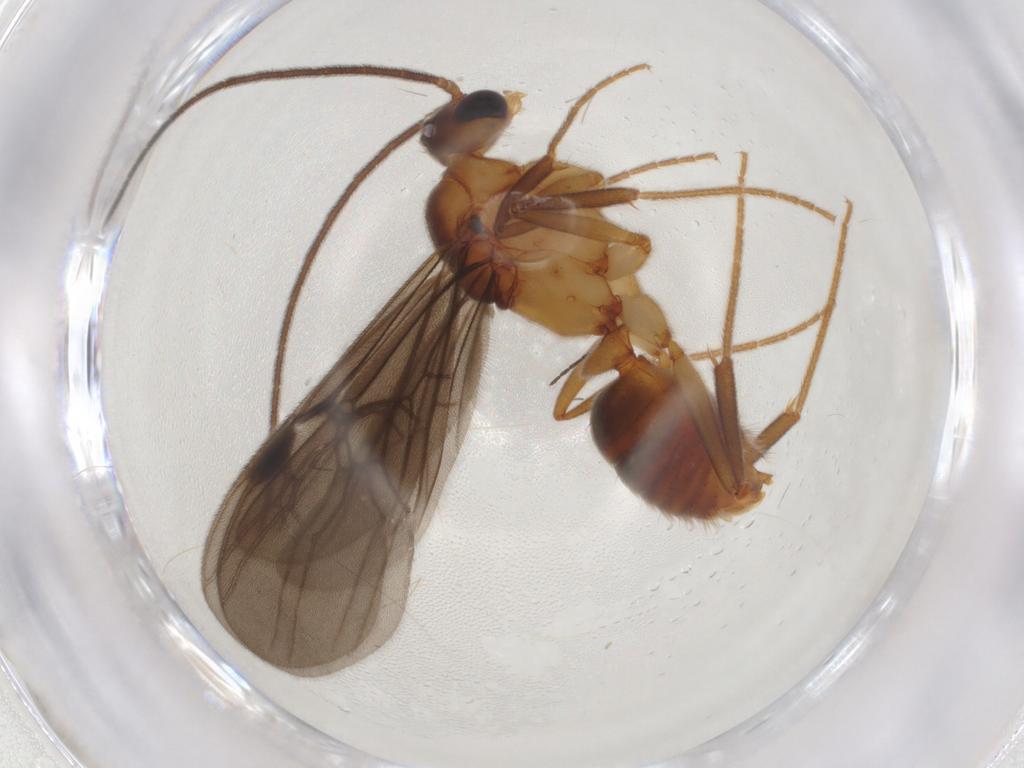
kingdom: Animalia
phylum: Arthropoda
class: Insecta
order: Hymenoptera
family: Formicidae
